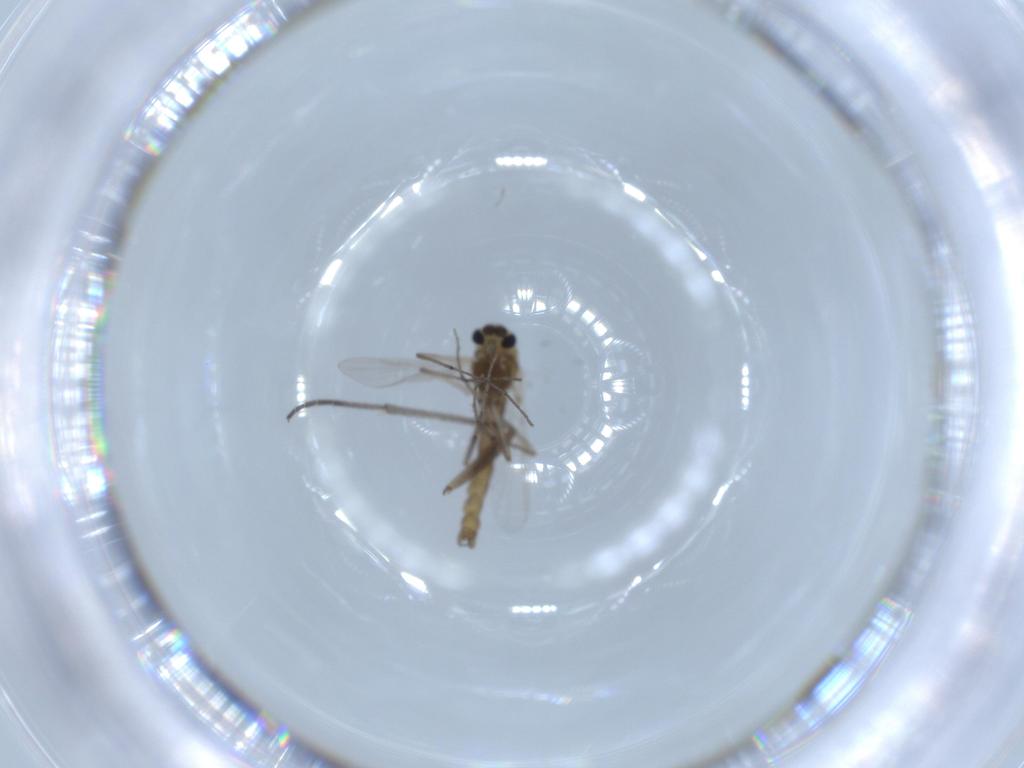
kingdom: Animalia
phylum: Arthropoda
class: Insecta
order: Diptera
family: Chironomidae
